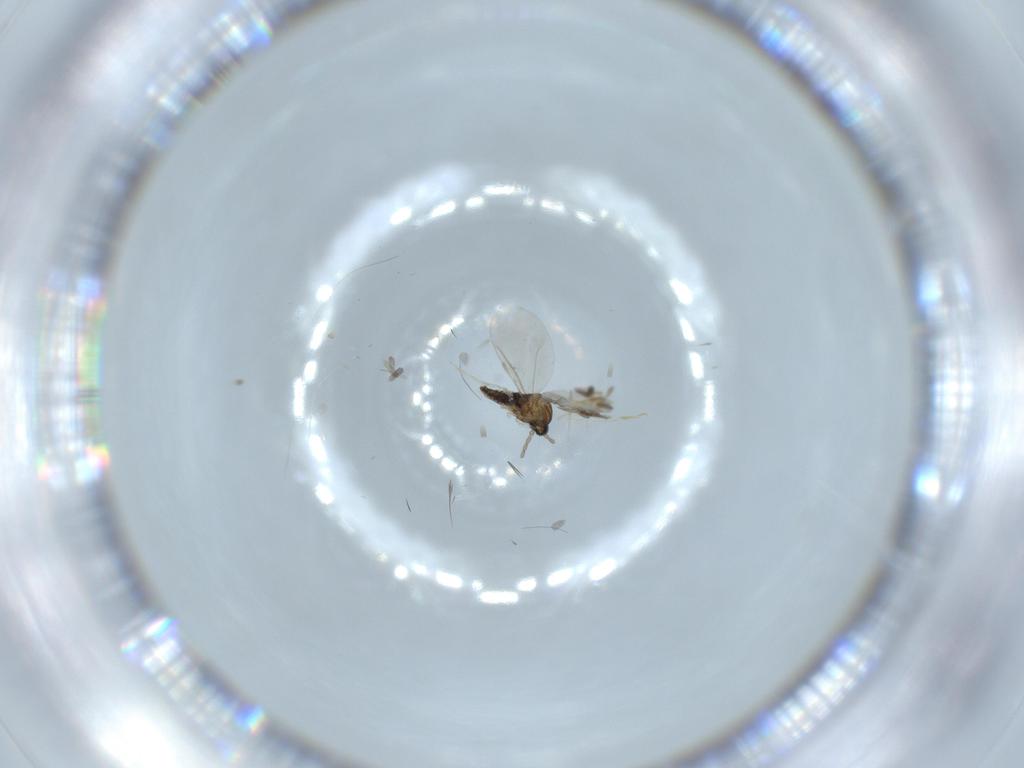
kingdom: Animalia
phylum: Arthropoda
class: Insecta
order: Diptera
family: Cecidomyiidae
